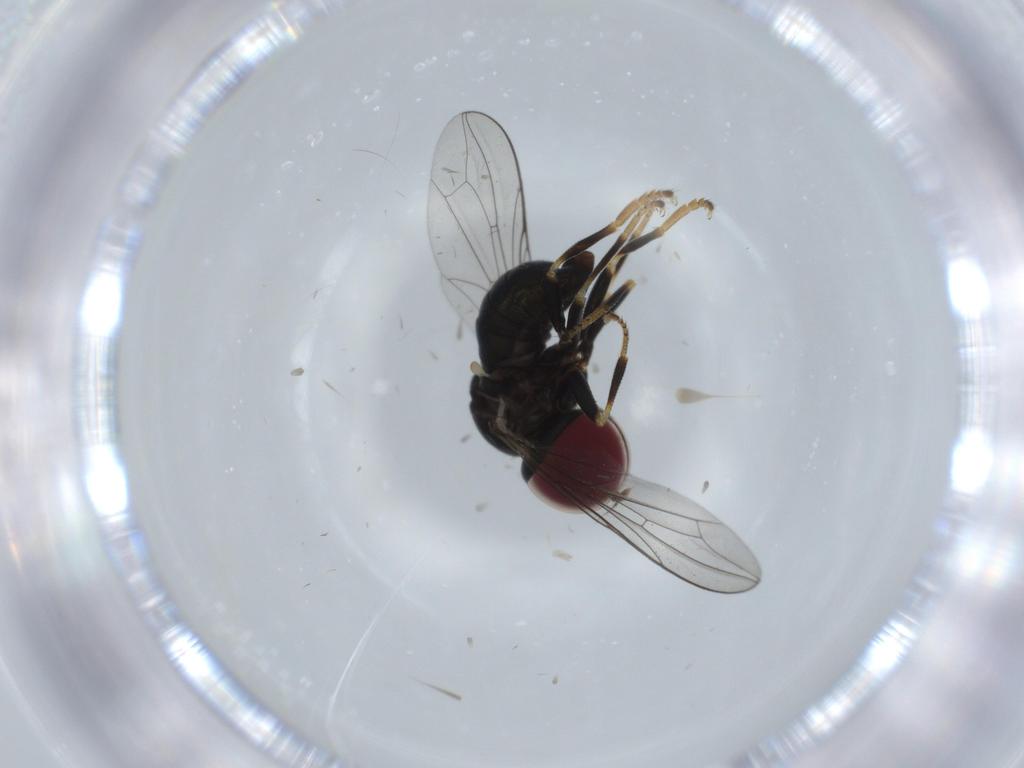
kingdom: Animalia
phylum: Arthropoda
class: Insecta
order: Diptera
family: Pipunculidae
